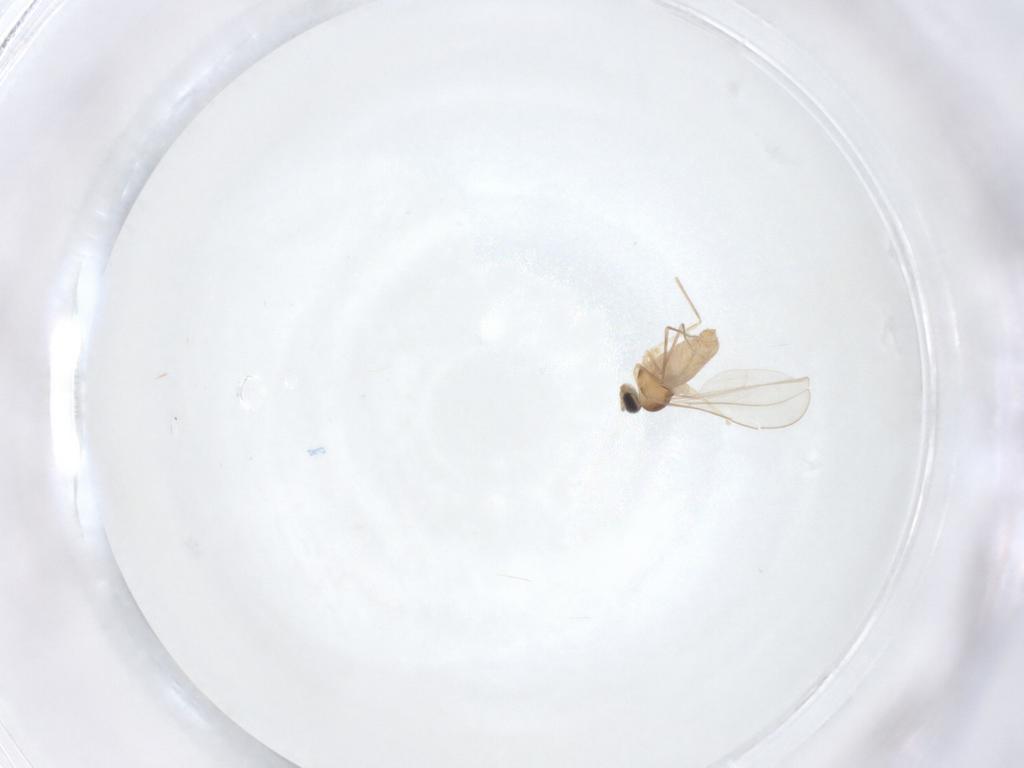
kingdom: Animalia
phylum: Arthropoda
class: Insecta
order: Diptera
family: Cecidomyiidae
